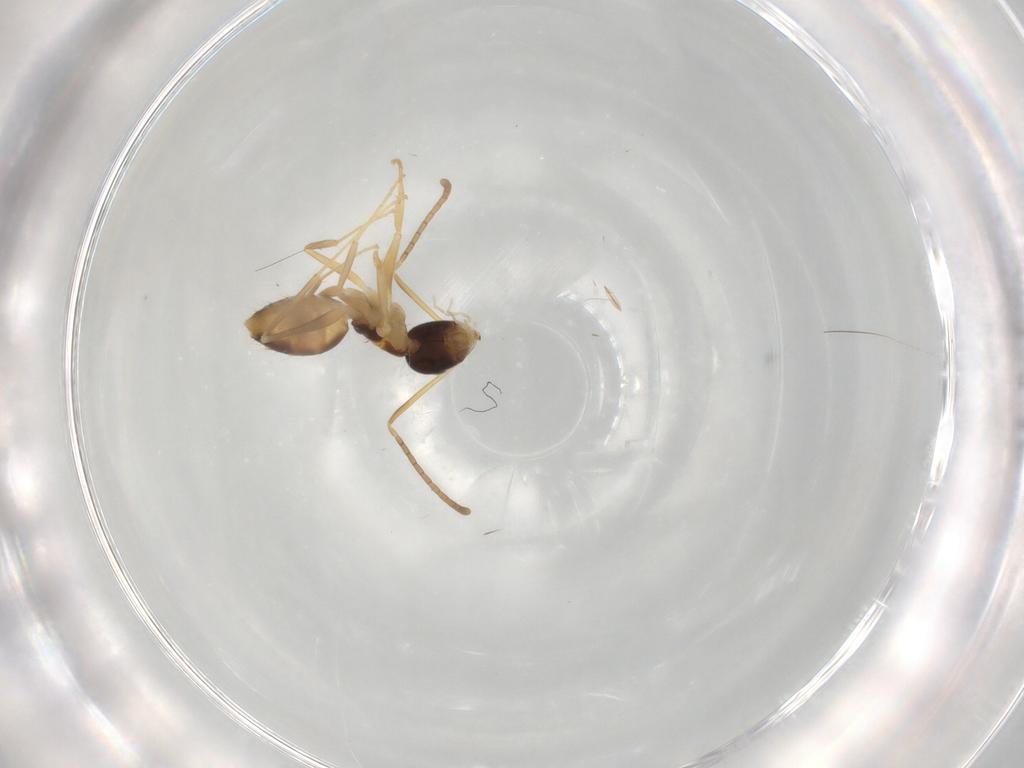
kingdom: Animalia
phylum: Arthropoda
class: Insecta
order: Hymenoptera
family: Formicidae
